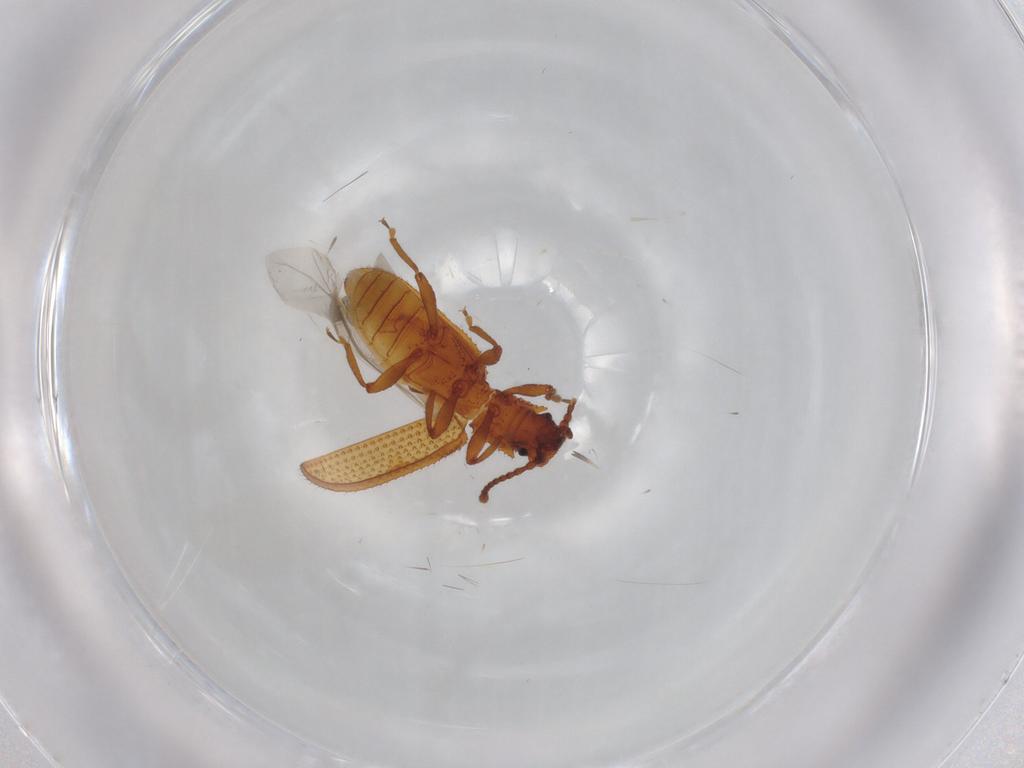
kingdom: Animalia
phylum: Arthropoda
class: Insecta
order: Coleoptera
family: Zopheridae
